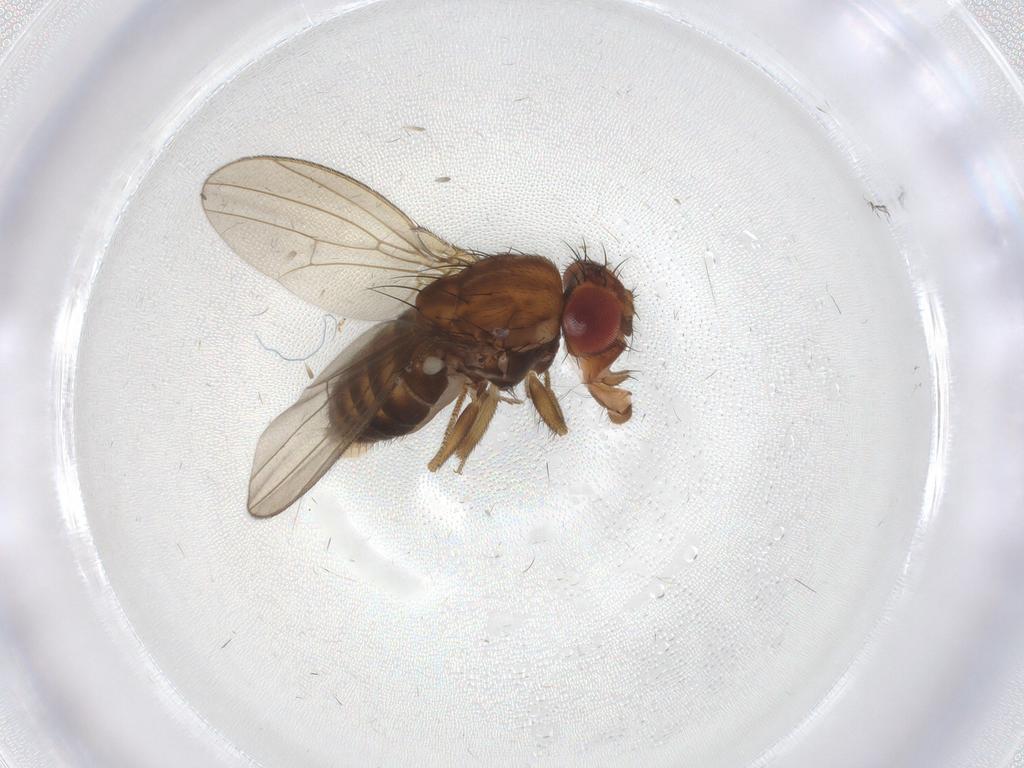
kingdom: Animalia
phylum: Arthropoda
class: Insecta
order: Diptera
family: Drosophilidae
